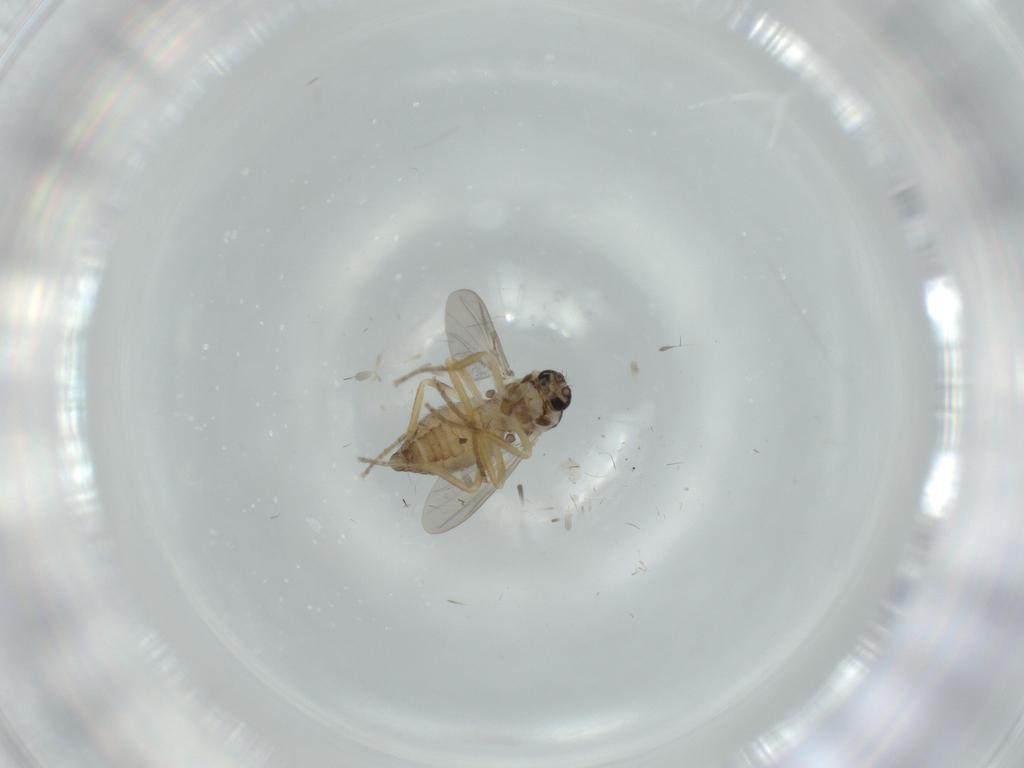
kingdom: Animalia
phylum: Arthropoda
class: Insecta
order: Diptera
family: Ceratopogonidae
